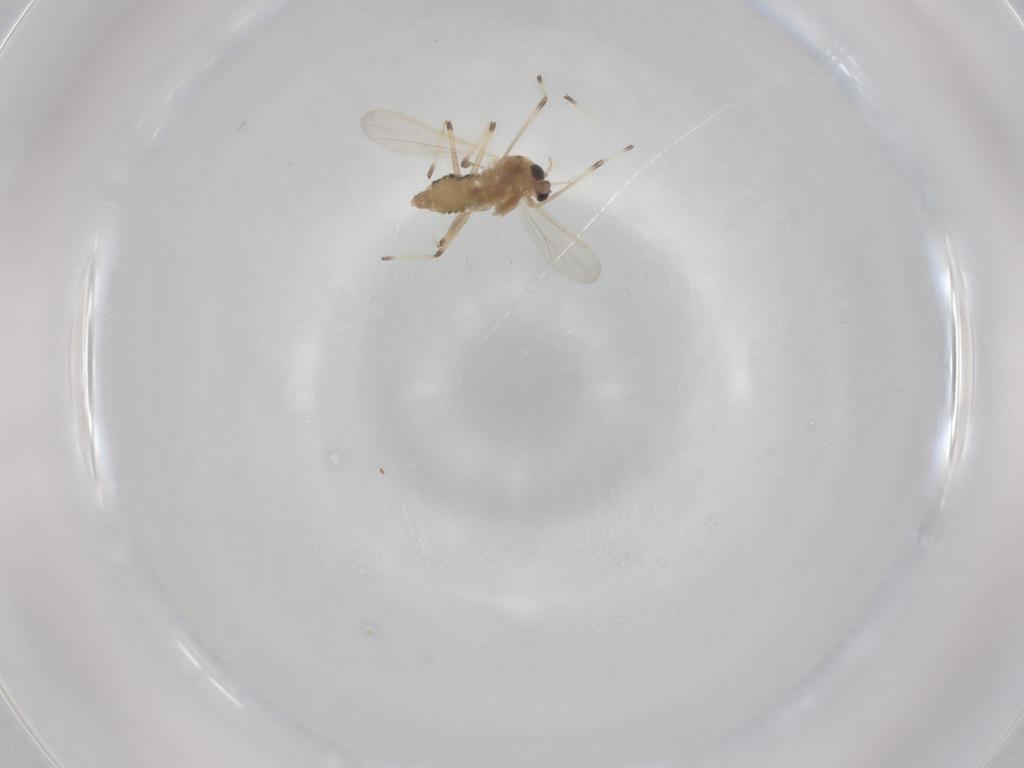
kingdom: Animalia
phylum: Arthropoda
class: Insecta
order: Diptera
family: Chironomidae
